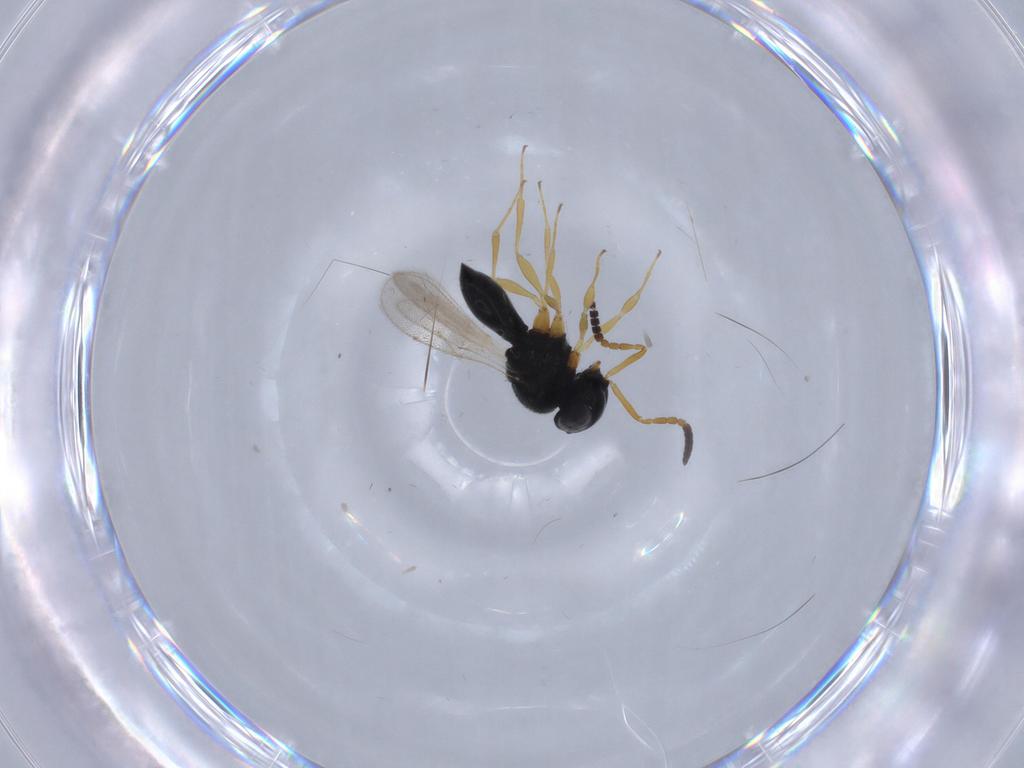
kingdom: Animalia
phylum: Arthropoda
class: Insecta
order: Hymenoptera
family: Scelionidae
